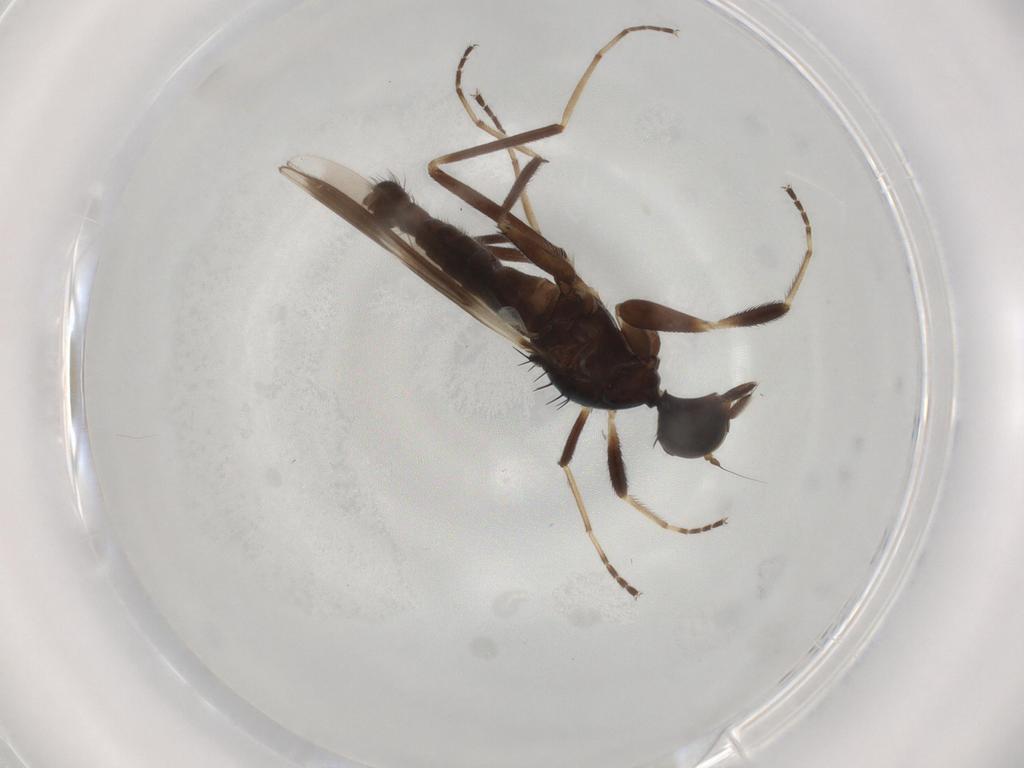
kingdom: Animalia
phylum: Arthropoda
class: Insecta
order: Diptera
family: Hybotidae
